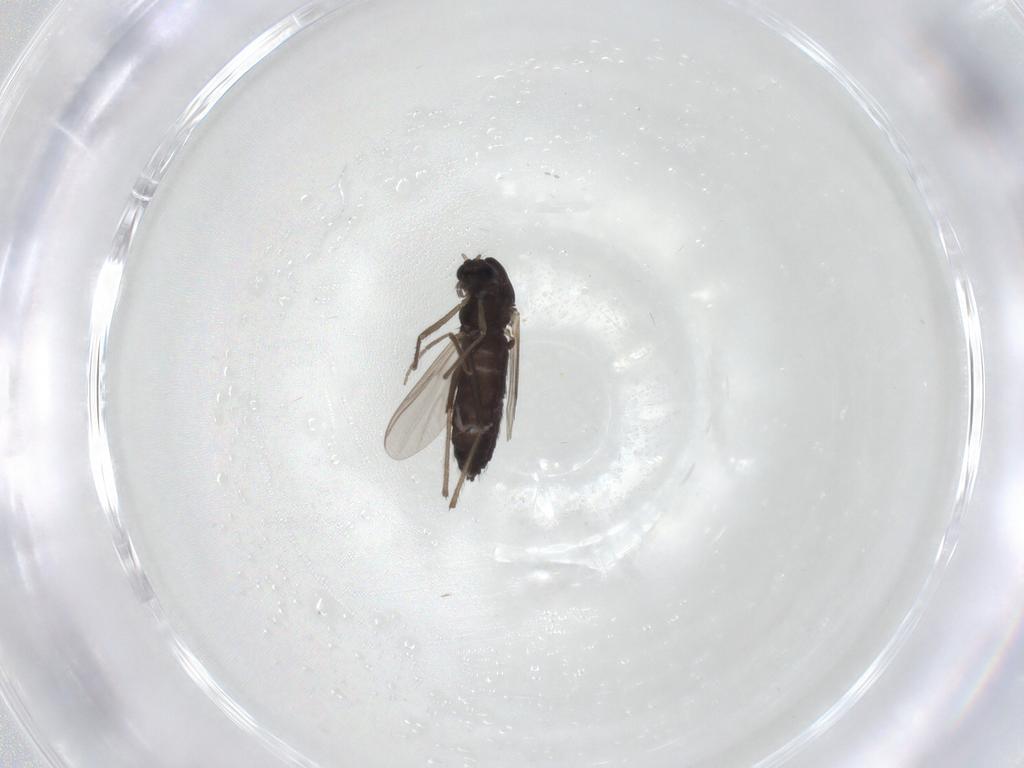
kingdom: Animalia
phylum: Arthropoda
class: Insecta
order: Diptera
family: Chironomidae
